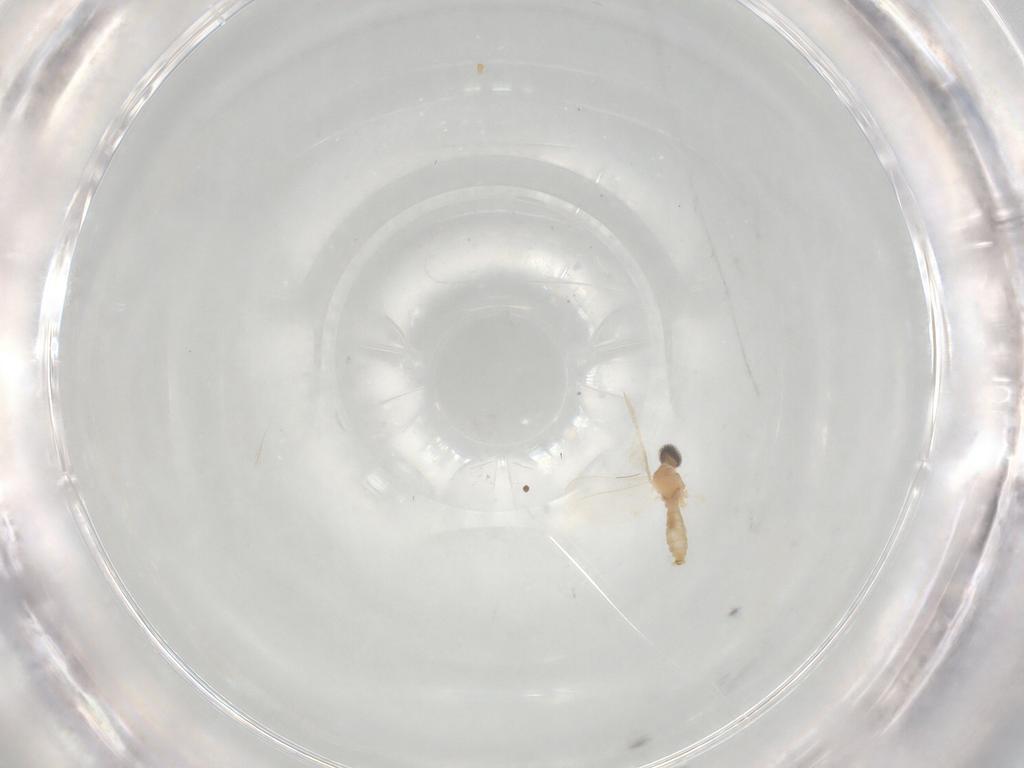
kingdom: Animalia
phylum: Arthropoda
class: Insecta
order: Diptera
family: Cecidomyiidae
